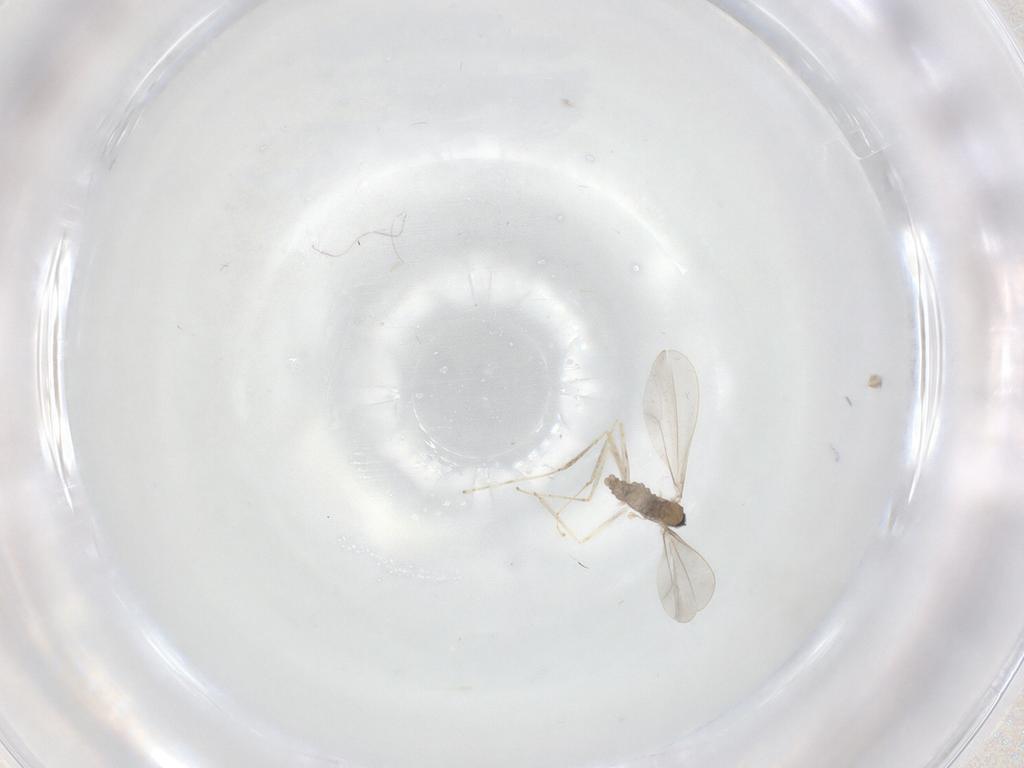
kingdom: Animalia
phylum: Arthropoda
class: Insecta
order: Diptera
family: Cecidomyiidae
